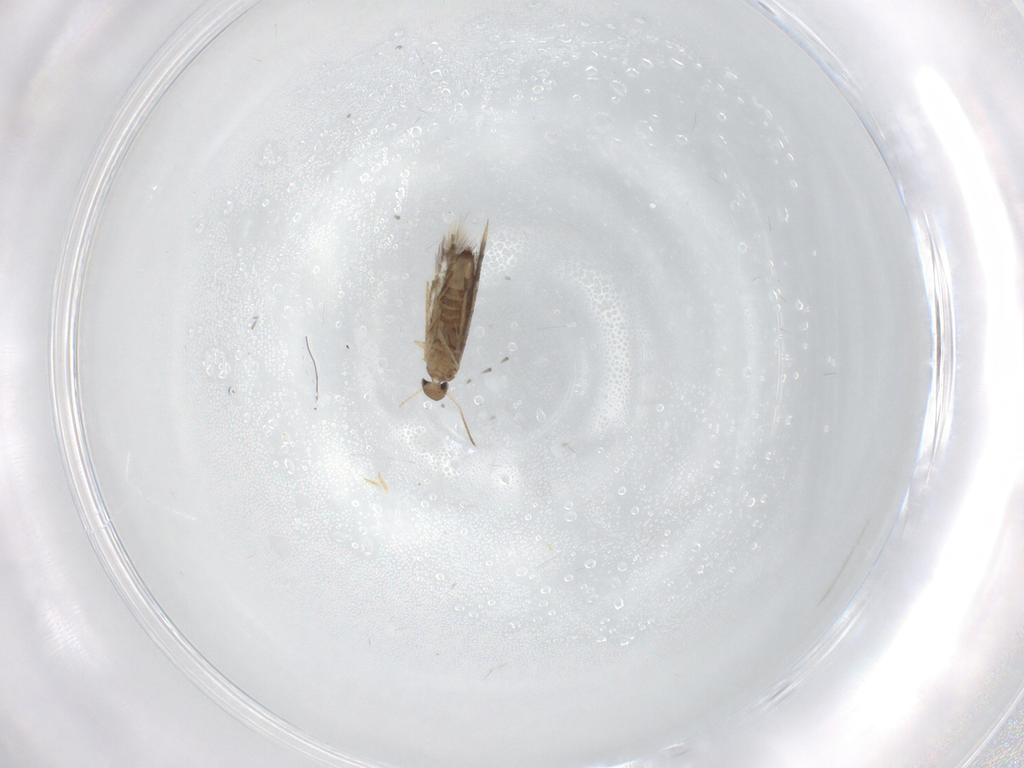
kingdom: Animalia
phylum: Arthropoda
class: Insecta
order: Lepidoptera
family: Heliozelidae
